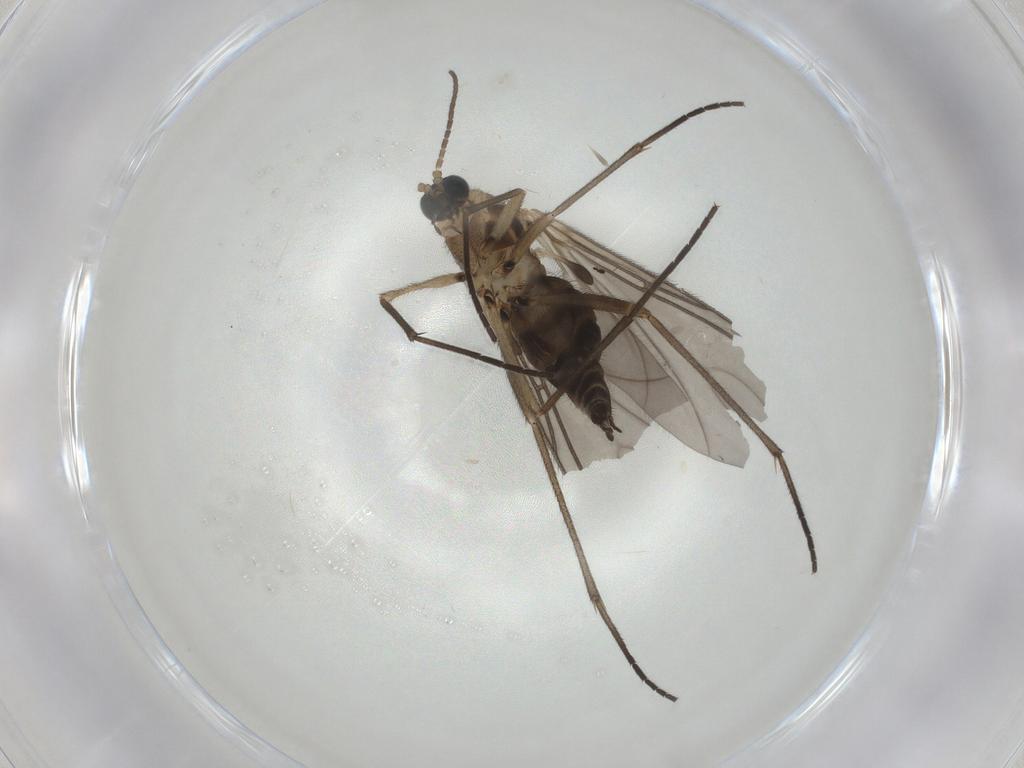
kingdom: Animalia
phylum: Arthropoda
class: Insecta
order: Diptera
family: Dolichopodidae
